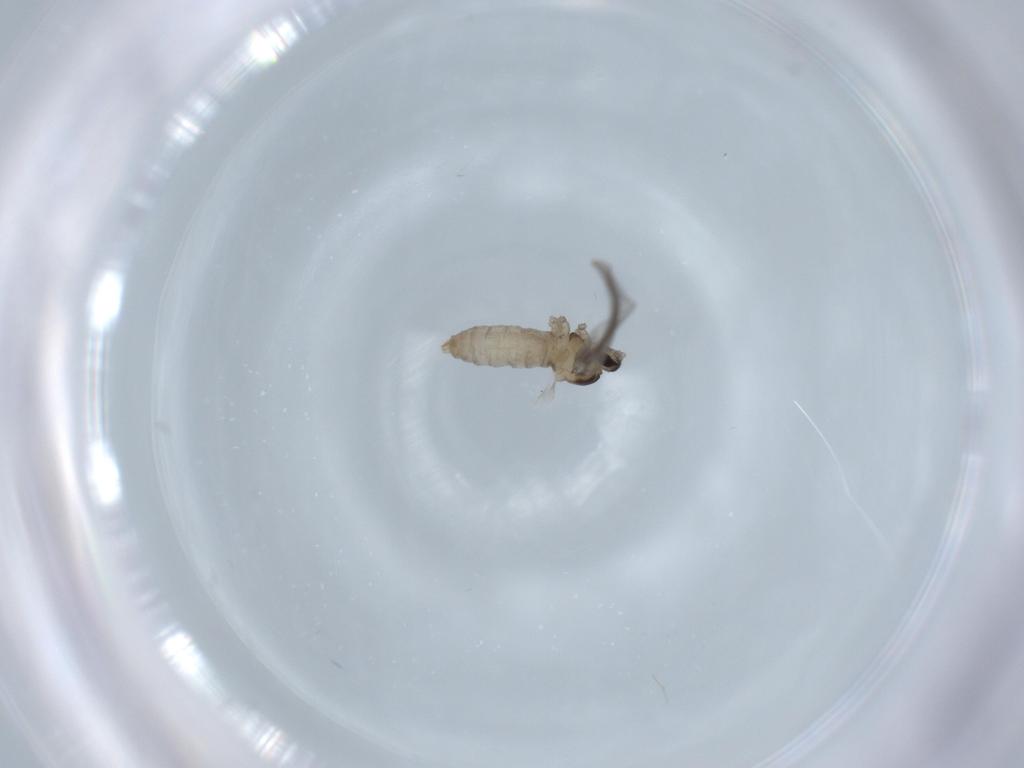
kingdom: Animalia
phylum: Arthropoda
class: Insecta
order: Diptera
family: Cecidomyiidae
